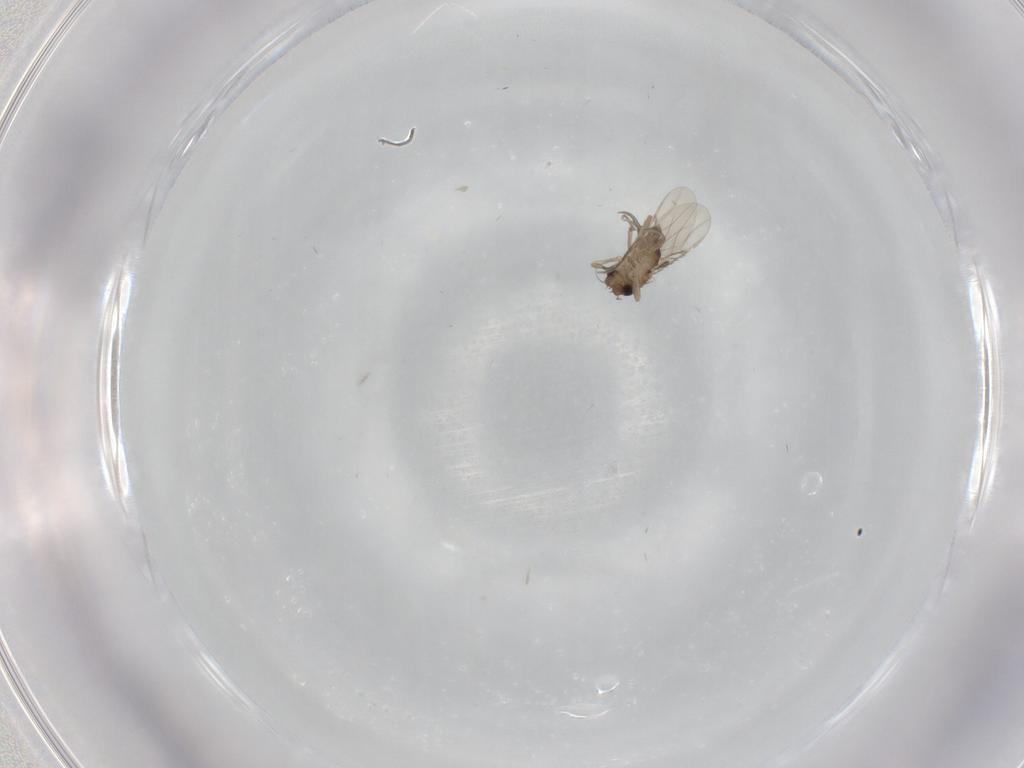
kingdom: Animalia
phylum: Arthropoda
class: Insecta
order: Diptera
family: Phoridae
